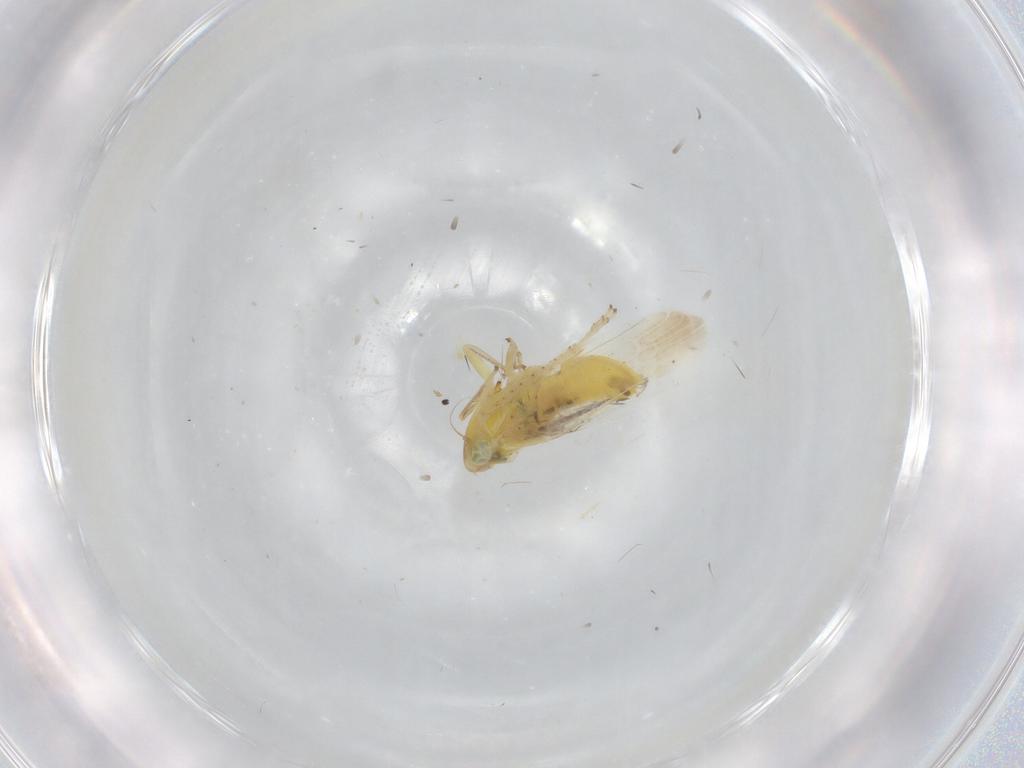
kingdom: Animalia
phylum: Arthropoda
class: Insecta
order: Hemiptera
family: Cicadellidae
